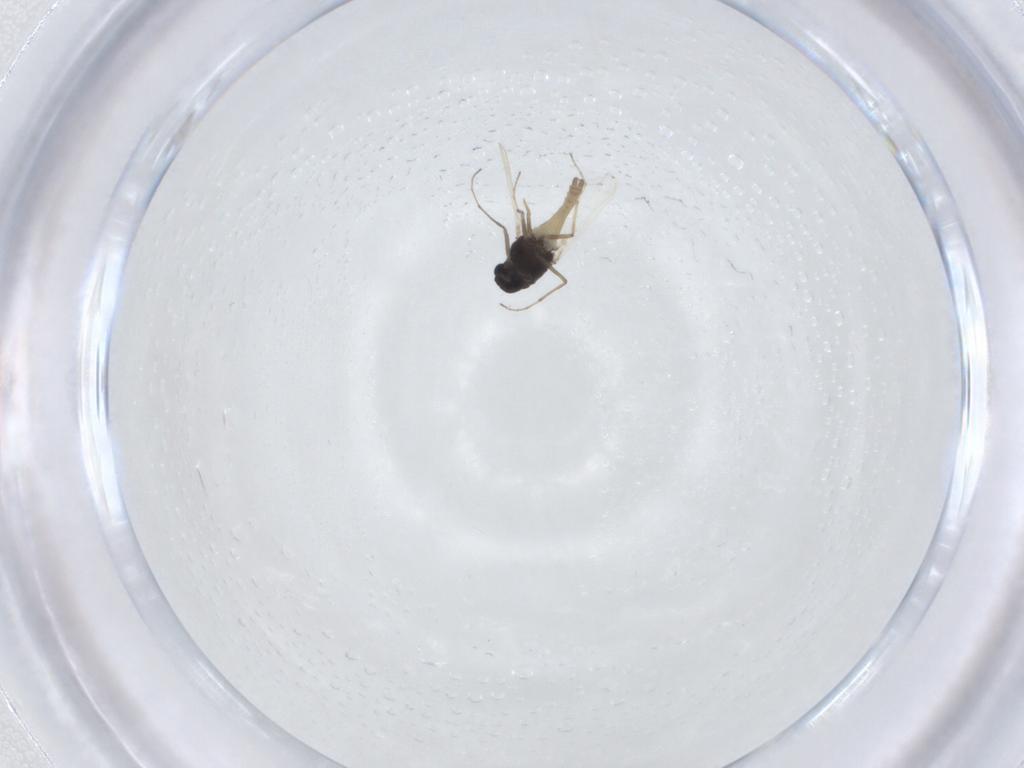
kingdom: Animalia
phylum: Arthropoda
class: Insecta
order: Diptera
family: Chironomidae
